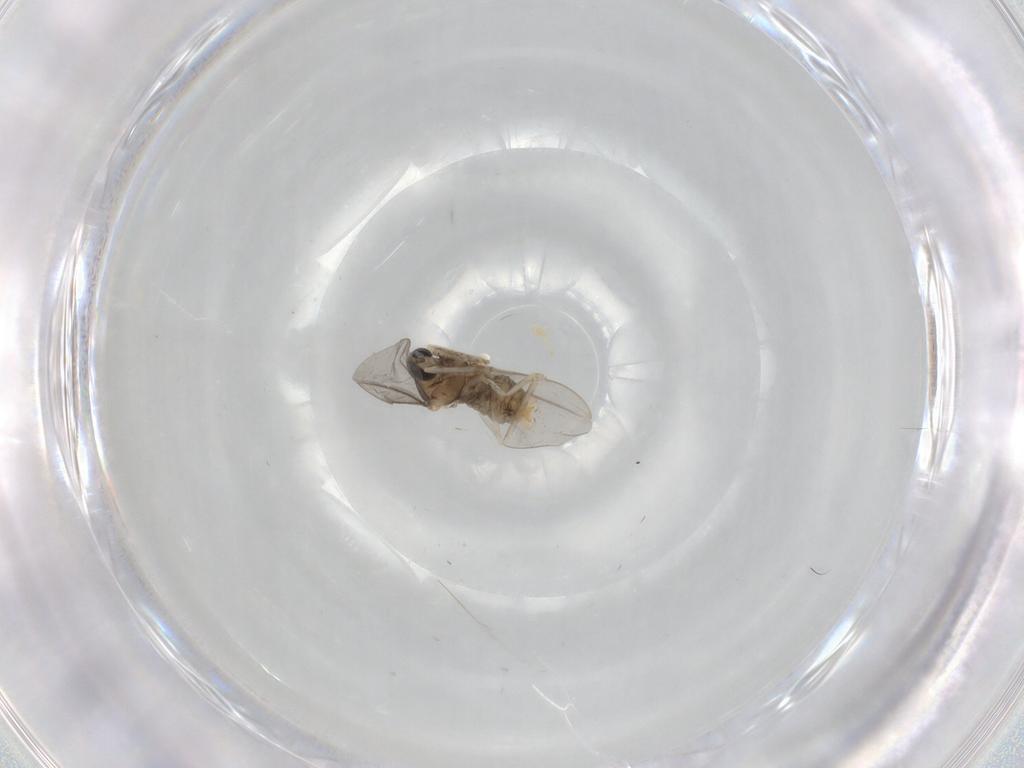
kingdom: Animalia
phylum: Arthropoda
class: Insecta
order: Diptera
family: Cecidomyiidae
